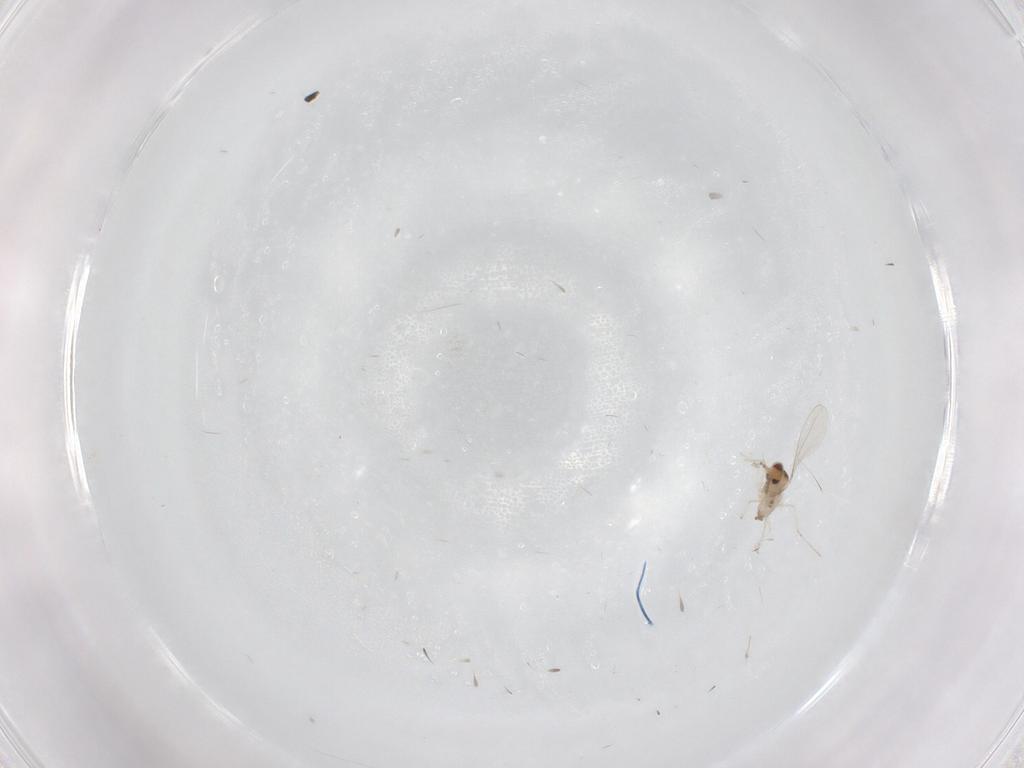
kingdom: Animalia
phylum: Arthropoda
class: Insecta
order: Diptera
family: Cecidomyiidae
